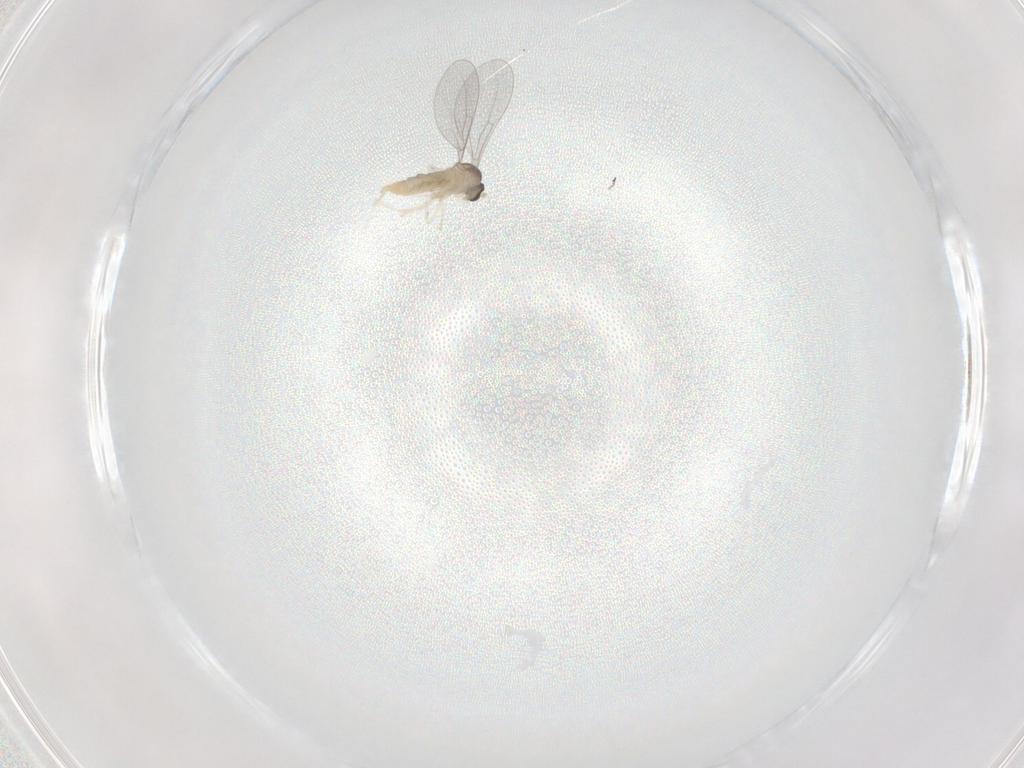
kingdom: Animalia
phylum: Arthropoda
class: Insecta
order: Diptera
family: Cecidomyiidae
